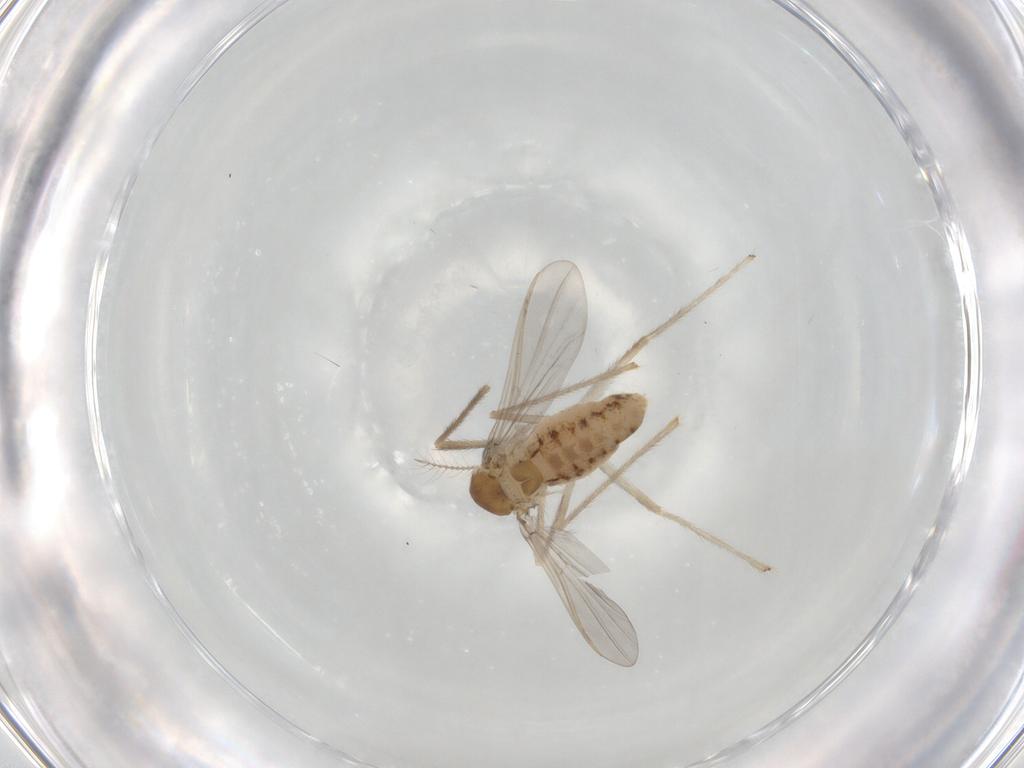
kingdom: Animalia
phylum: Arthropoda
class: Insecta
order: Diptera
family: Chironomidae
